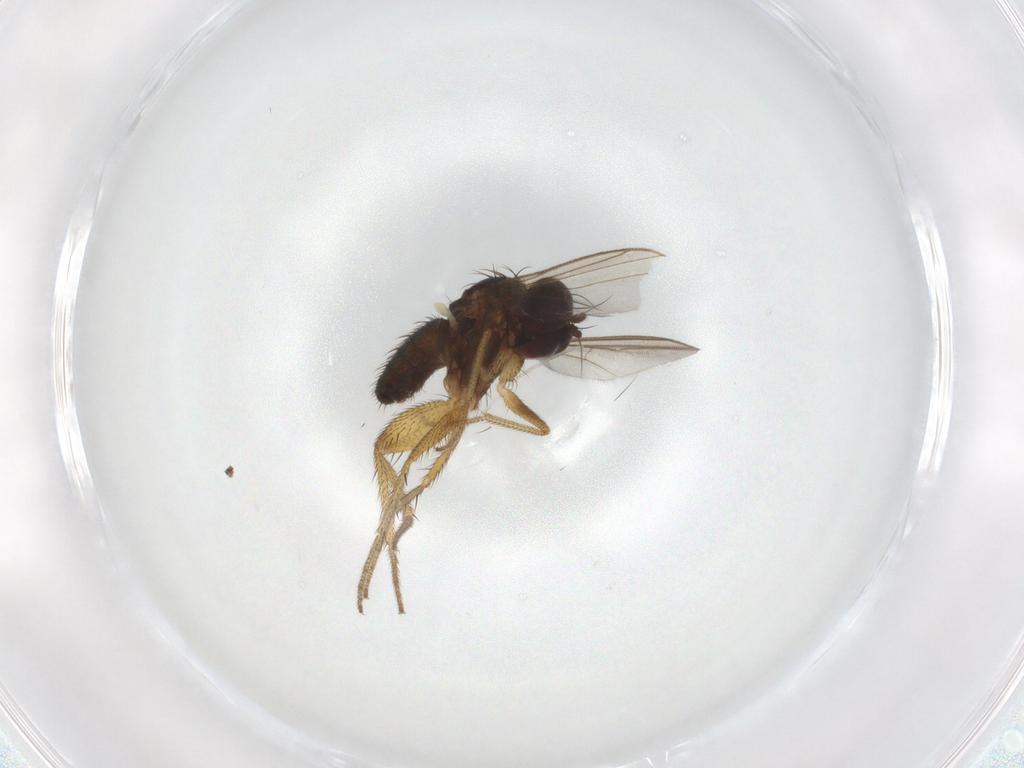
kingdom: Animalia
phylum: Arthropoda
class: Insecta
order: Diptera
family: Cecidomyiidae
